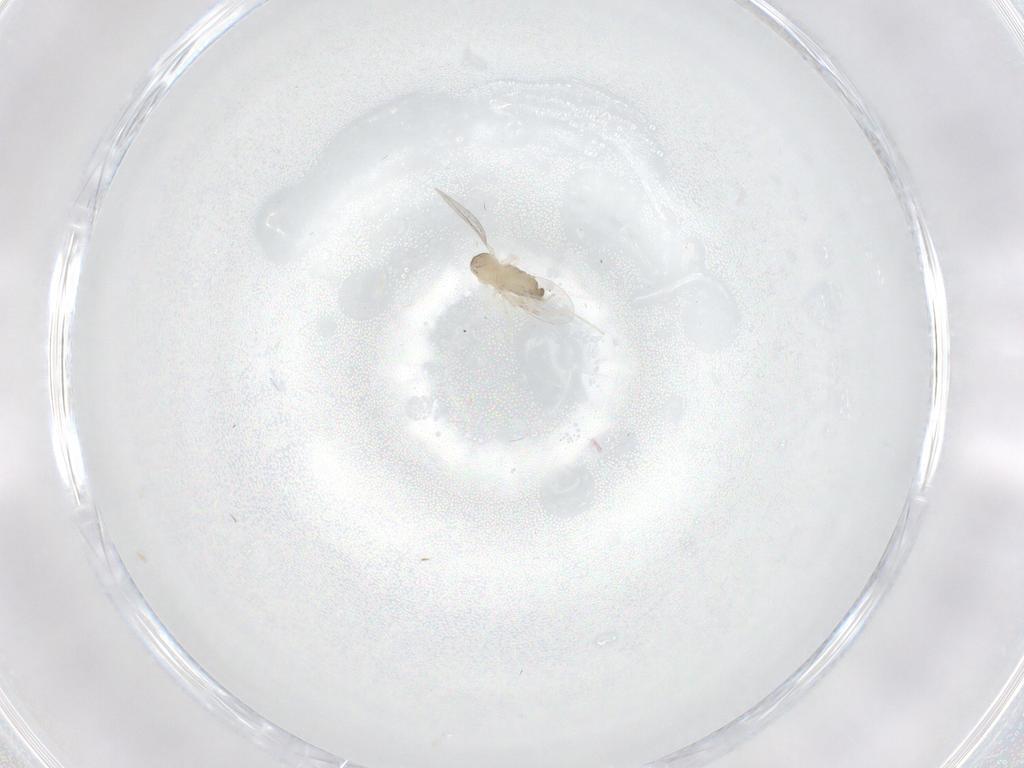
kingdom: Animalia
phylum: Arthropoda
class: Insecta
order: Diptera
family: Cecidomyiidae
